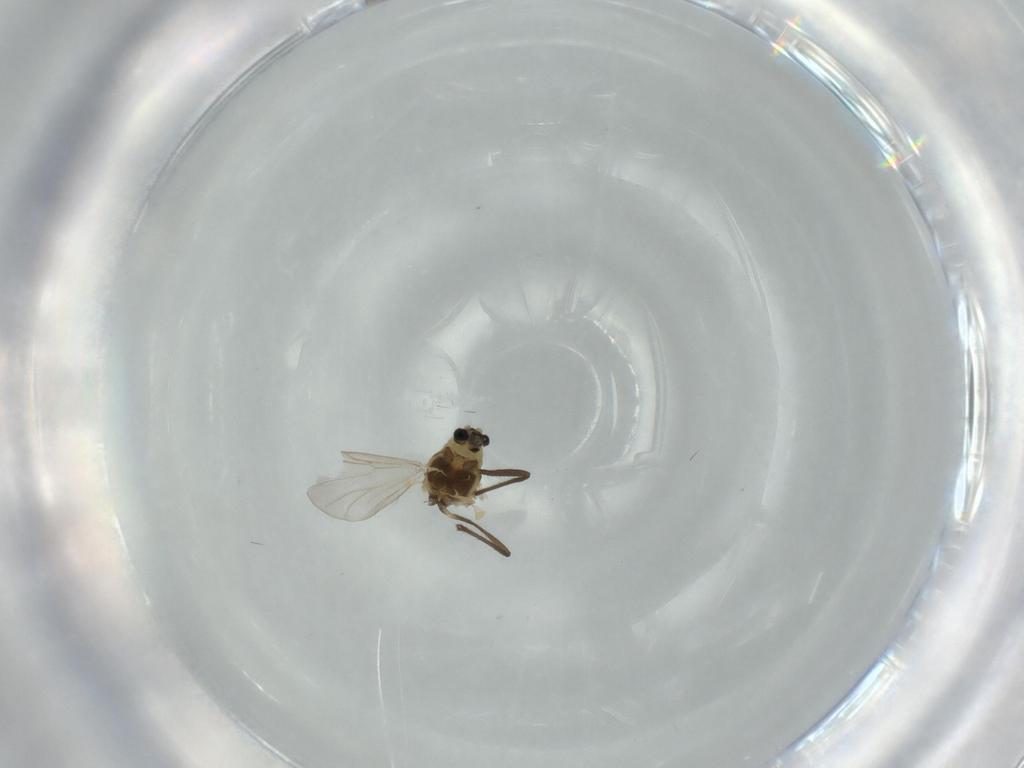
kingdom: Animalia
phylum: Arthropoda
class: Insecta
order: Diptera
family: Chironomidae
